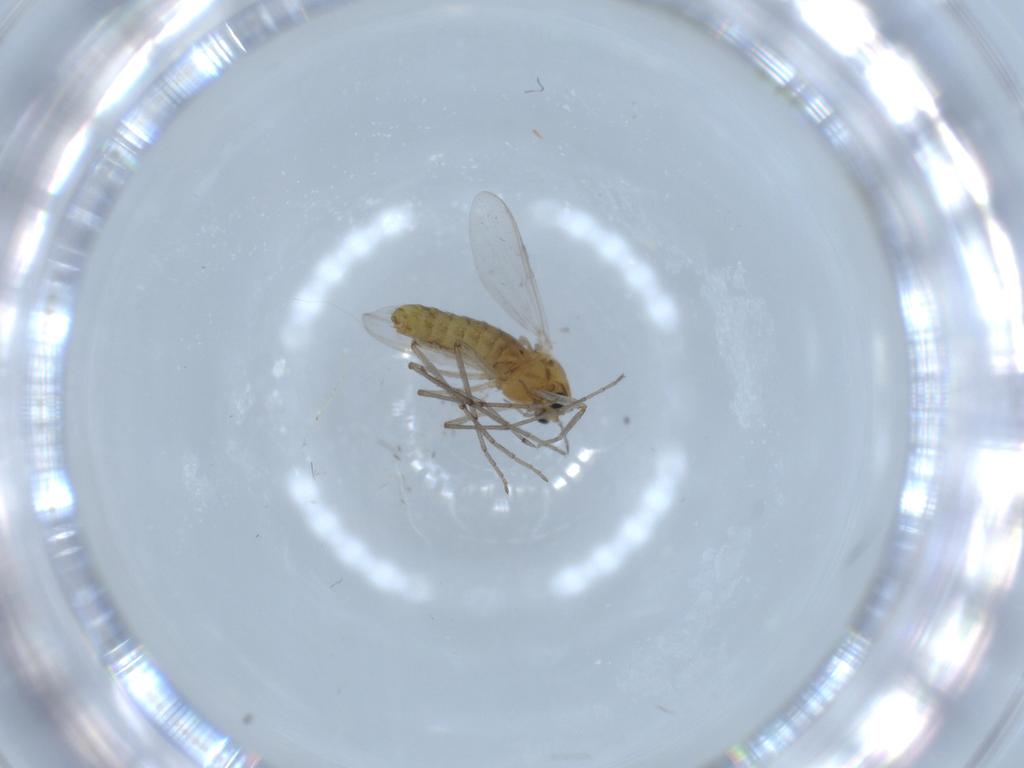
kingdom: Animalia
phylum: Arthropoda
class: Insecta
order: Diptera
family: Chironomidae
